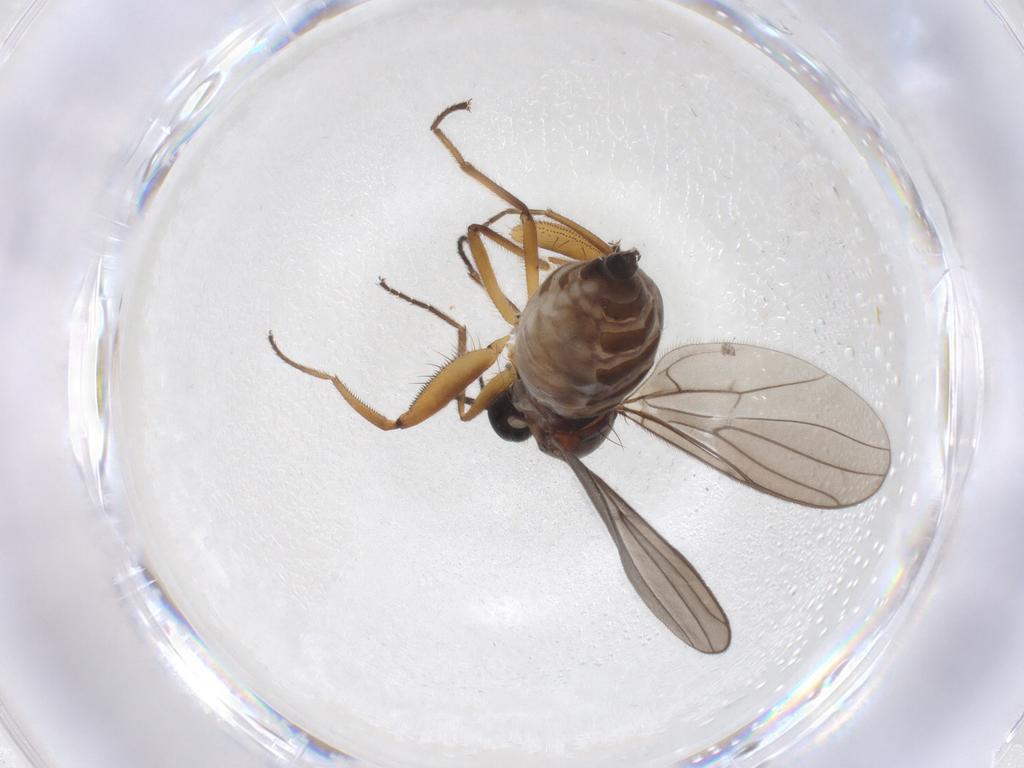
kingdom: Animalia
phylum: Arthropoda
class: Insecta
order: Diptera
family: Hybotidae
